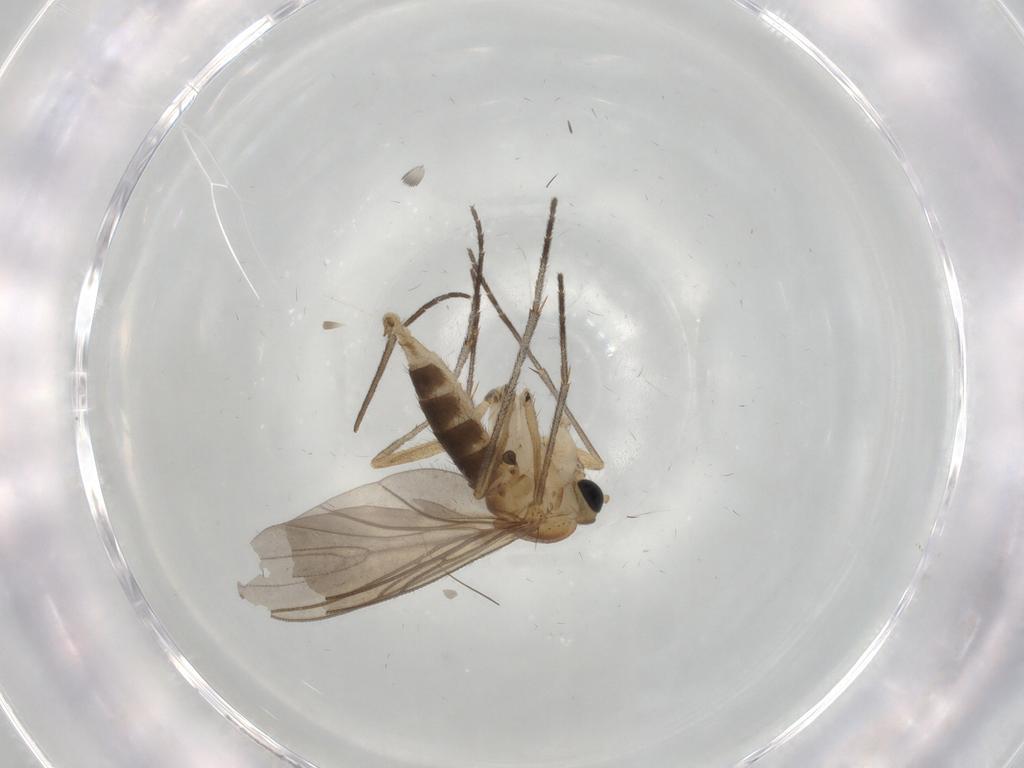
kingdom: Animalia
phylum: Arthropoda
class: Insecta
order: Diptera
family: Sciaridae
